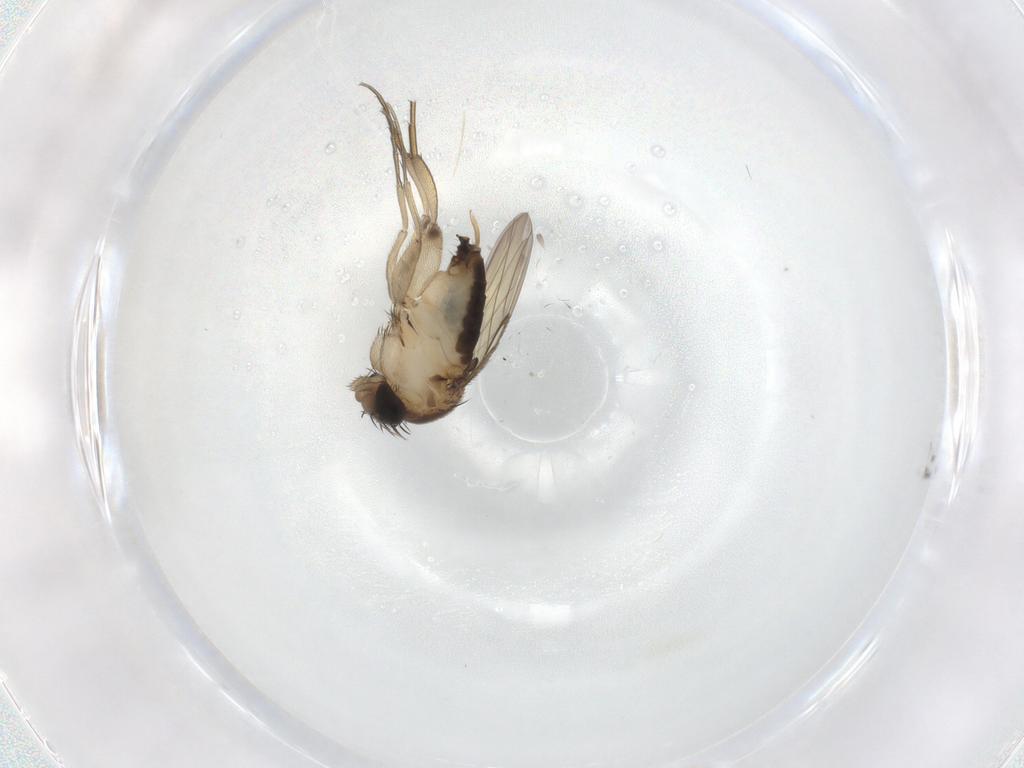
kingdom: Animalia
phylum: Arthropoda
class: Insecta
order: Diptera
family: Phoridae
